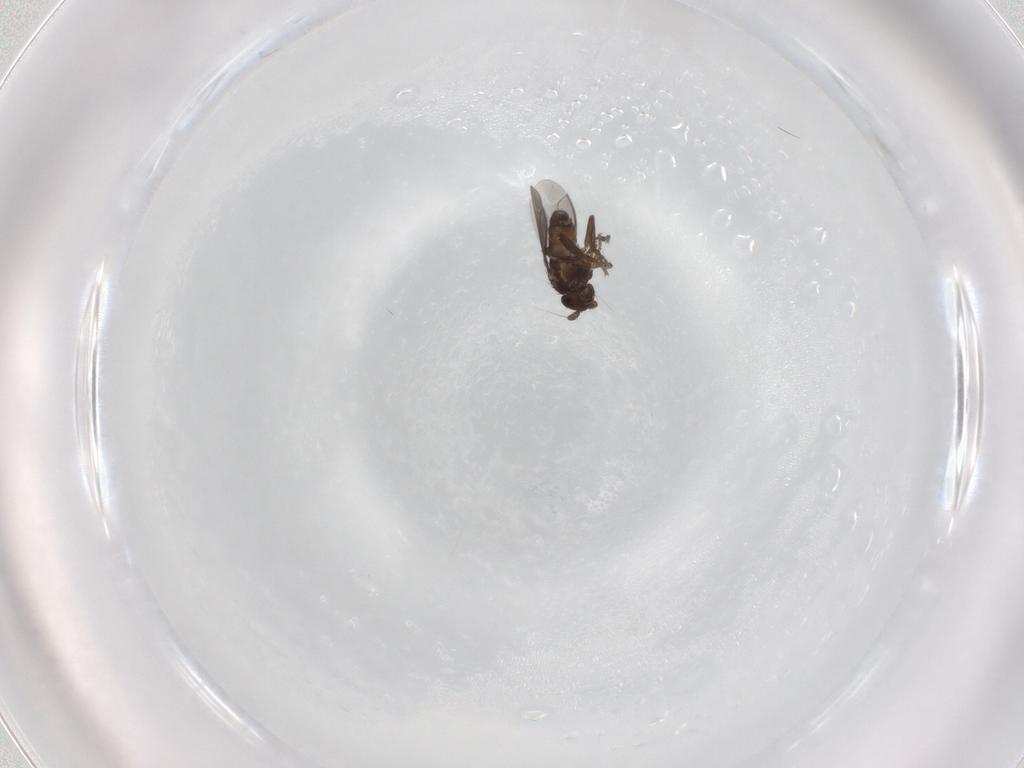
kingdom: Animalia
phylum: Arthropoda
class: Insecta
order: Diptera
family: Sphaeroceridae
